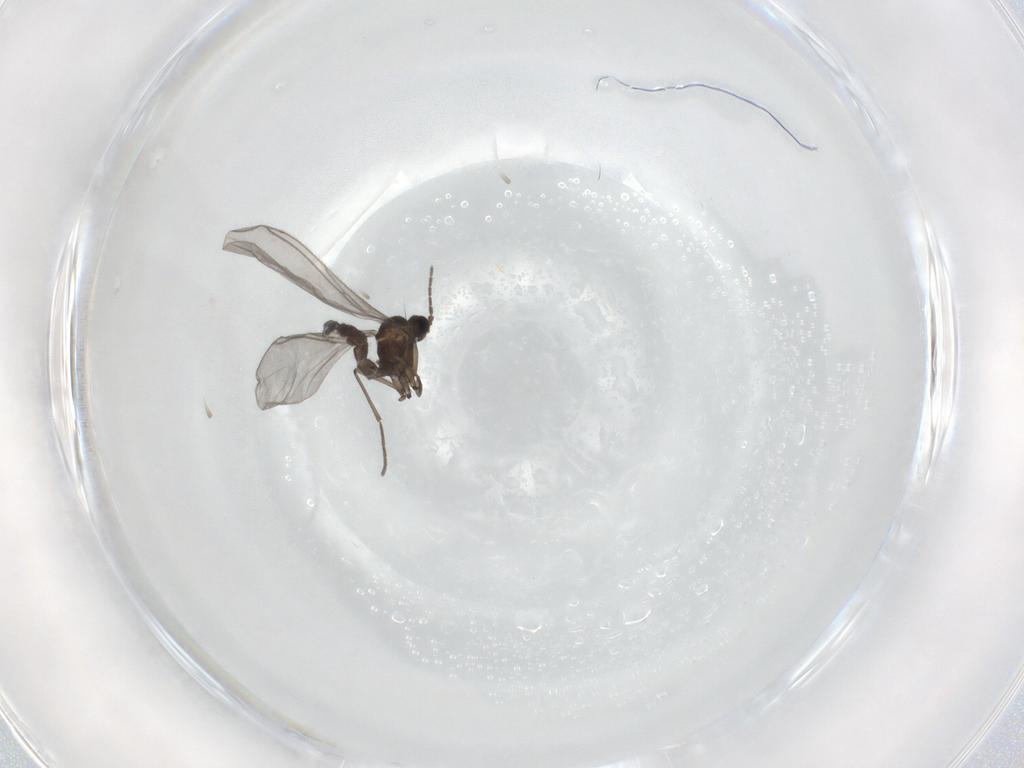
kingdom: Animalia
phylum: Arthropoda
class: Insecta
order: Diptera
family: Sciaridae
